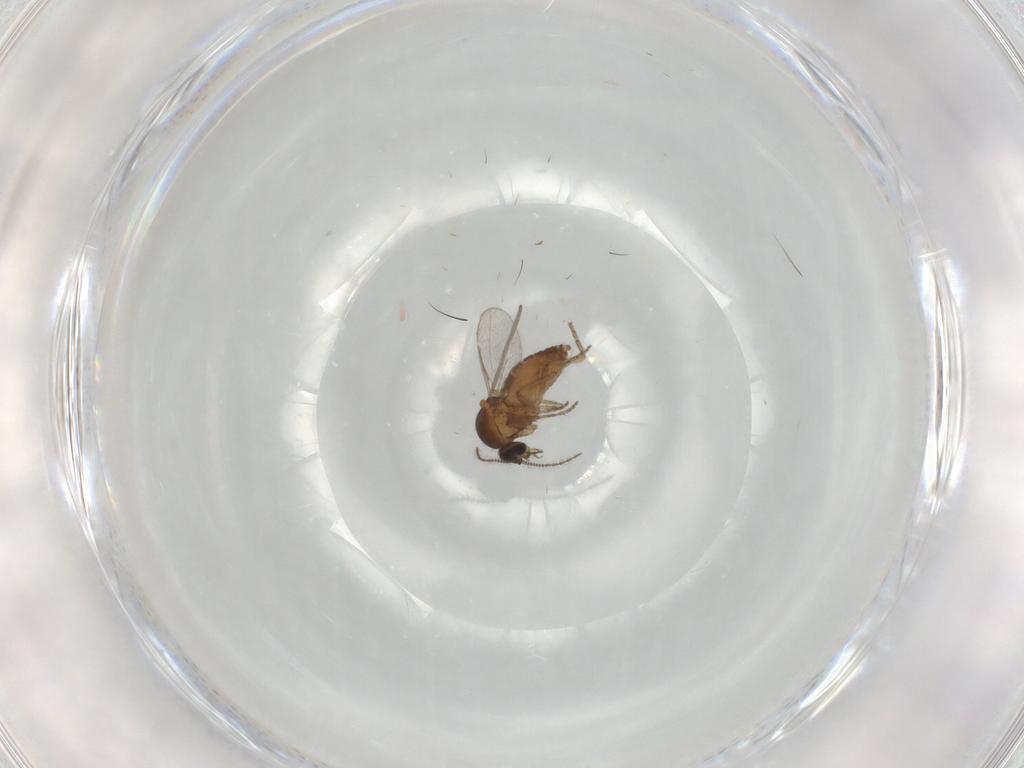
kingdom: Animalia
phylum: Arthropoda
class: Insecta
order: Diptera
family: Dolichopodidae
